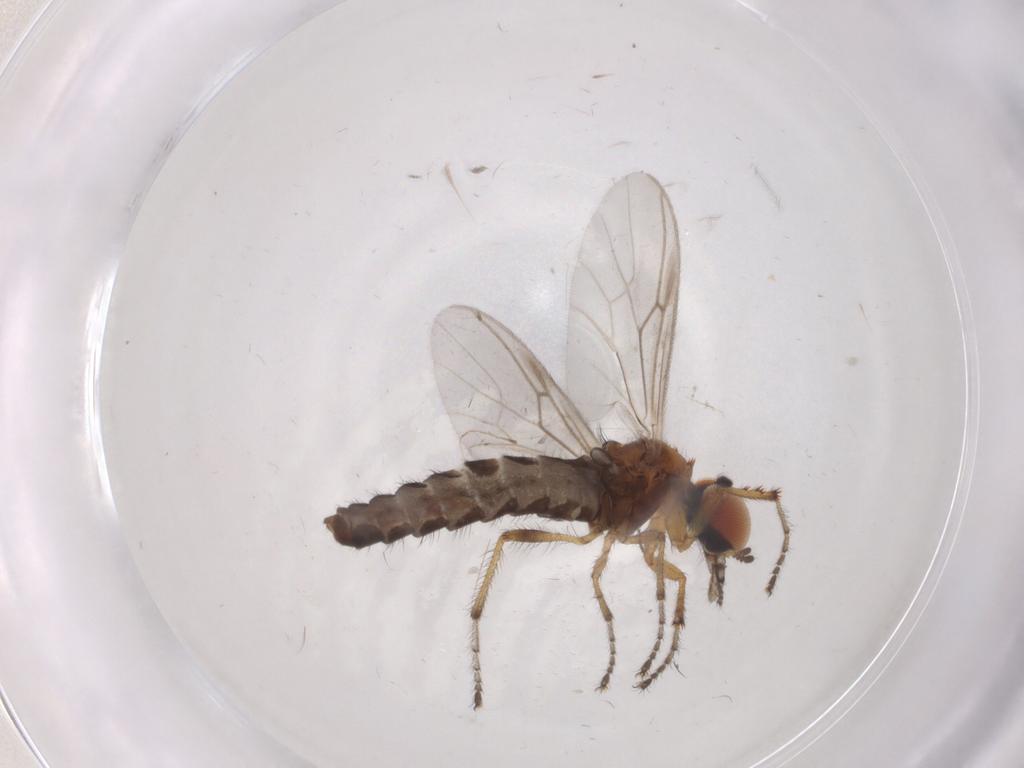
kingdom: Animalia
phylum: Arthropoda
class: Insecta
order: Diptera
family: Bibionidae
